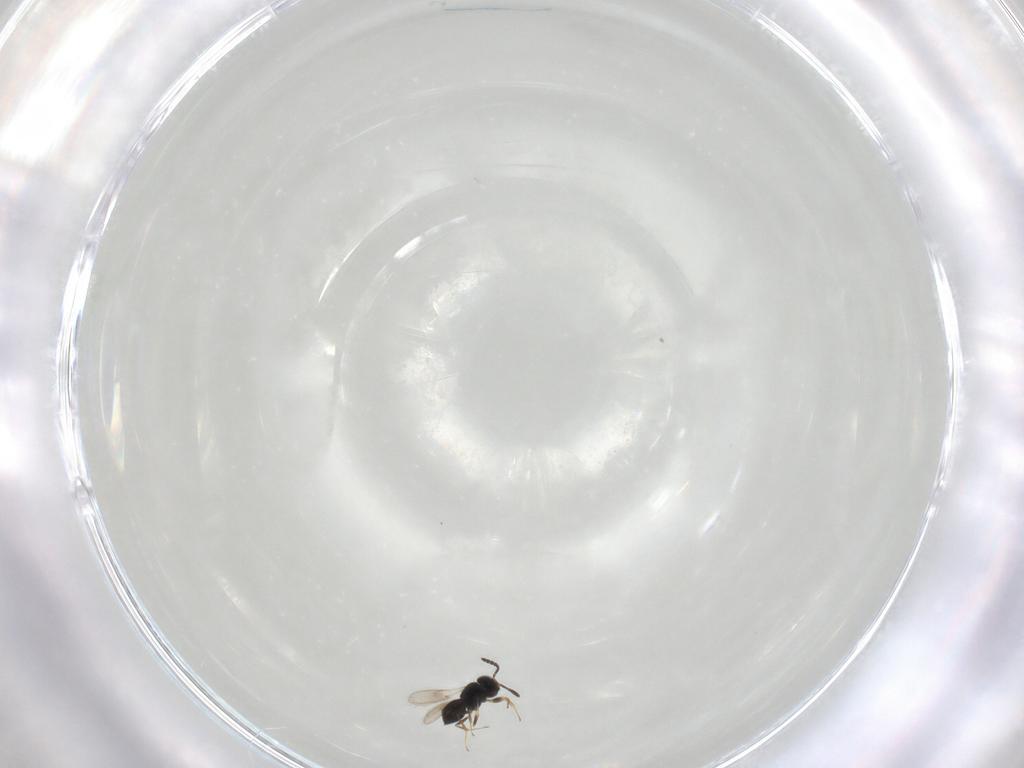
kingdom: Animalia
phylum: Arthropoda
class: Insecta
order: Hymenoptera
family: Scelionidae
